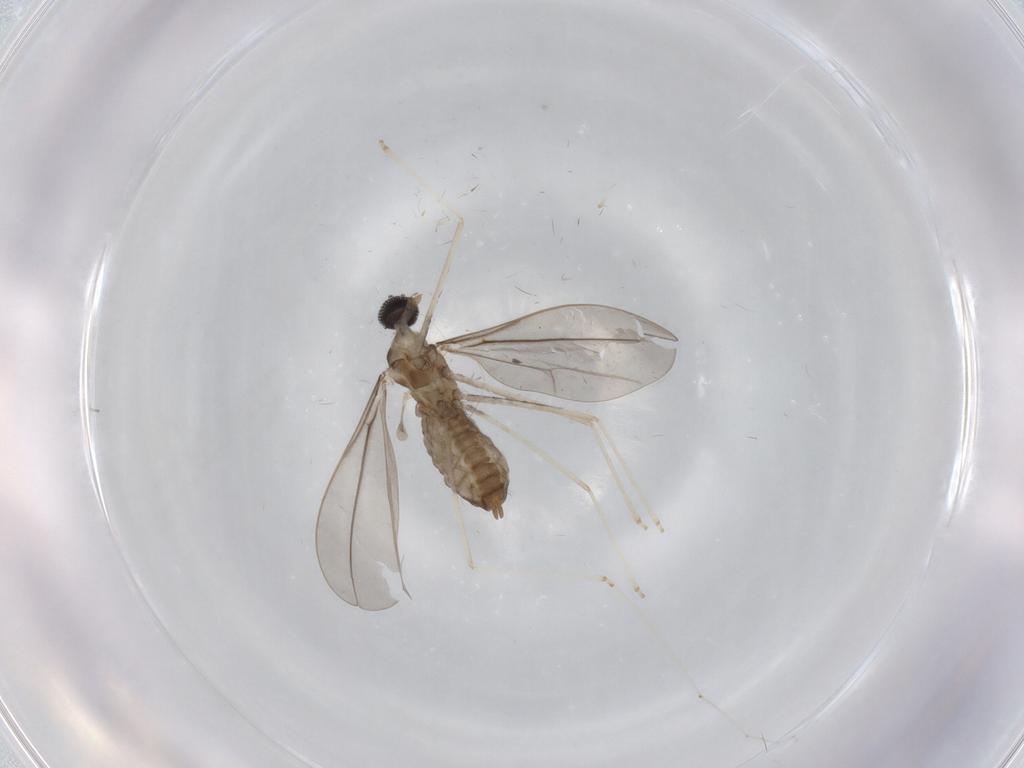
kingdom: Animalia
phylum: Arthropoda
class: Insecta
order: Diptera
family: Cecidomyiidae
